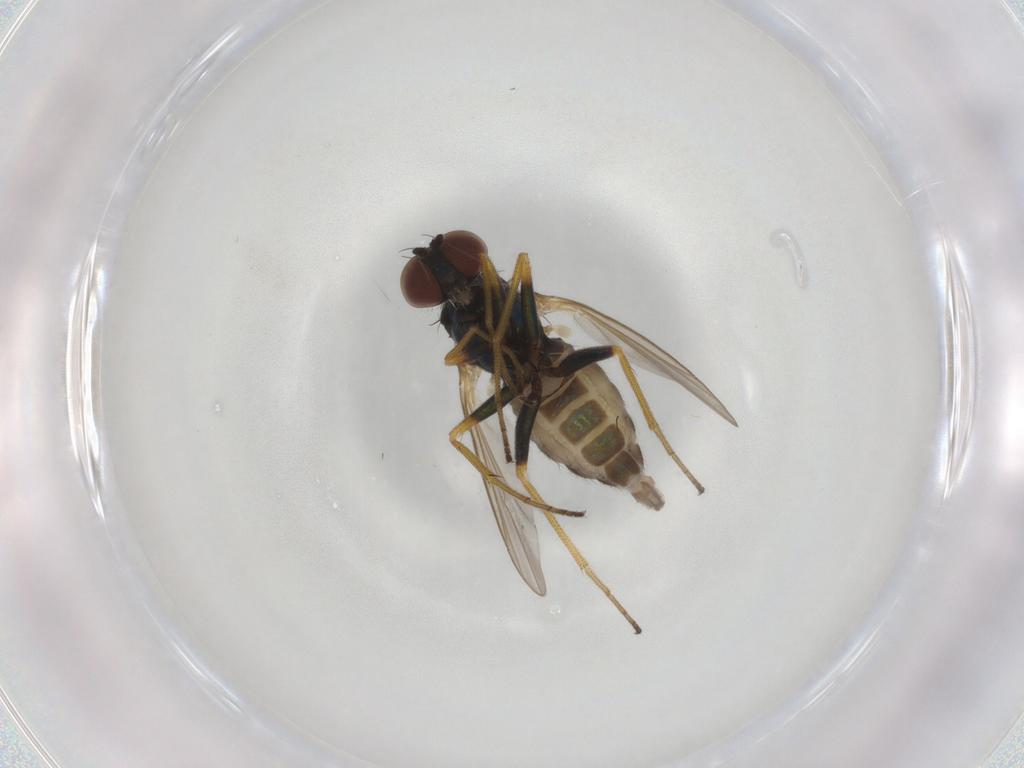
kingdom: Animalia
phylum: Arthropoda
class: Insecta
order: Diptera
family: Dolichopodidae
